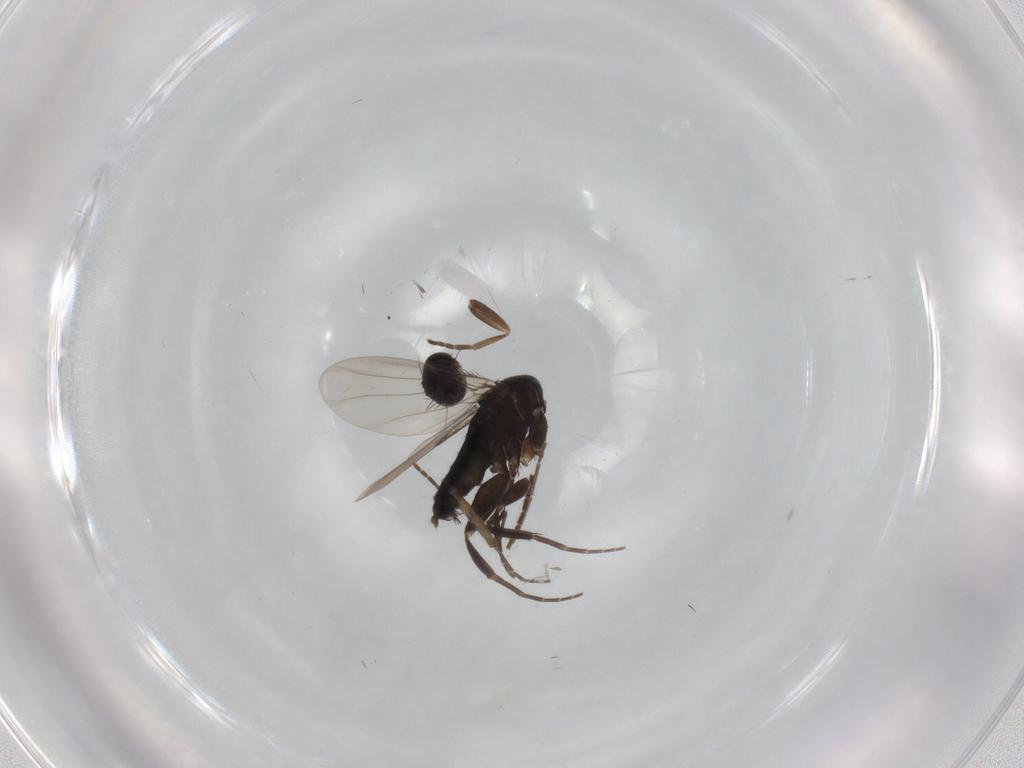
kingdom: Animalia
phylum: Arthropoda
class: Insecta
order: Diptera
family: Phoridae
